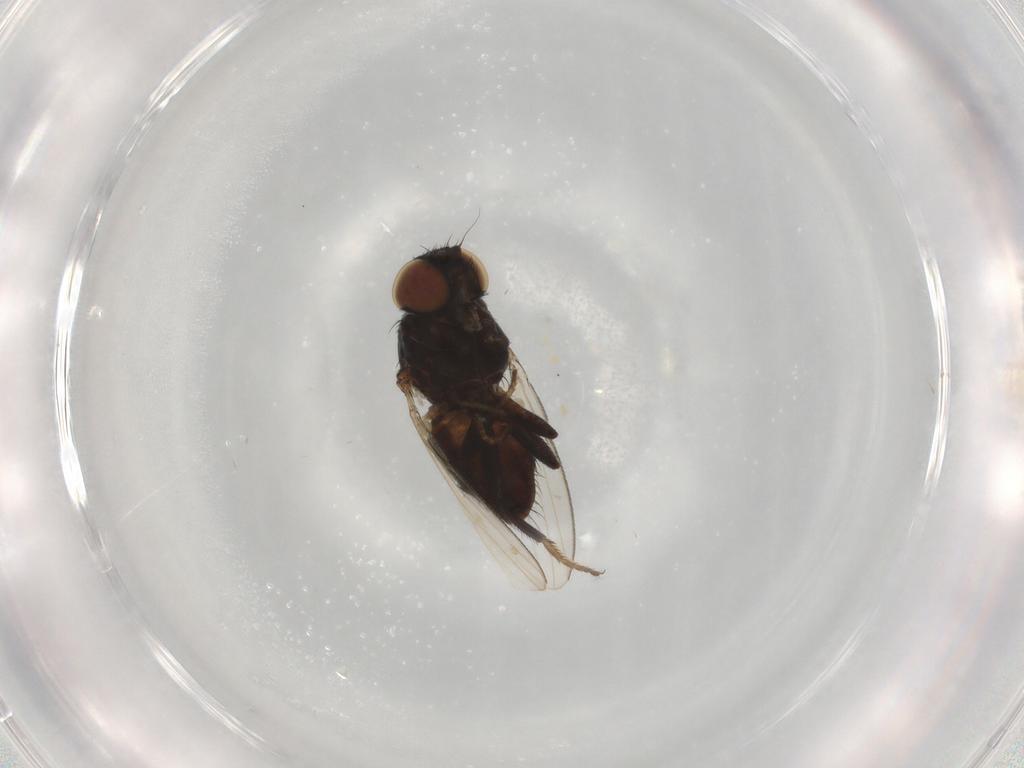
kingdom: Animalia
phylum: Arthropoda
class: Insecta
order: Diptera
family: Milichiidae
